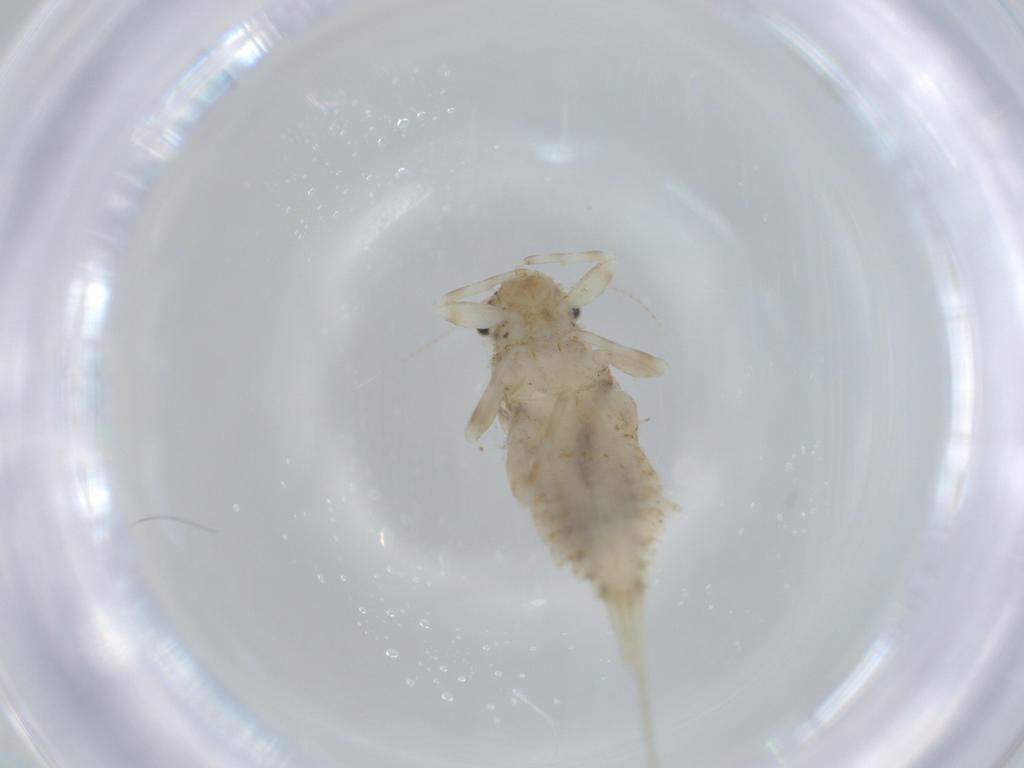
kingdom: Animalia
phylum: Arthropoda
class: Insecta
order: Ephemeroptera
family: Caenidae
